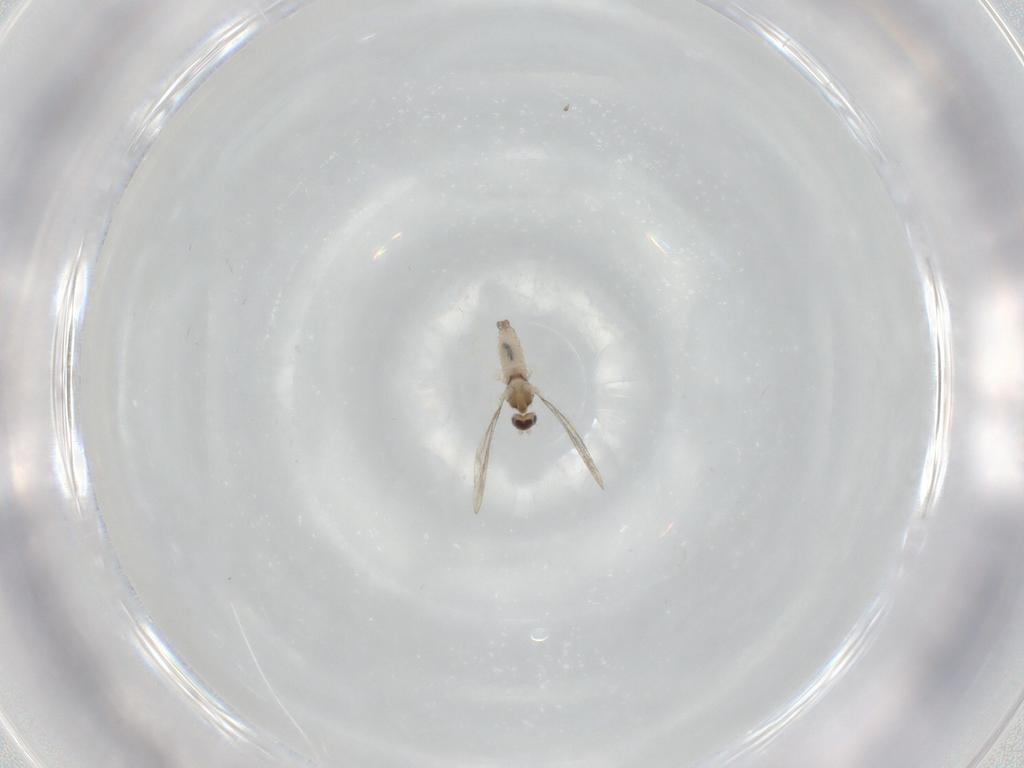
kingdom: Animalia
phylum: Arthropoda
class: Insecta
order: Diptera
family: Cecidomyiidae
